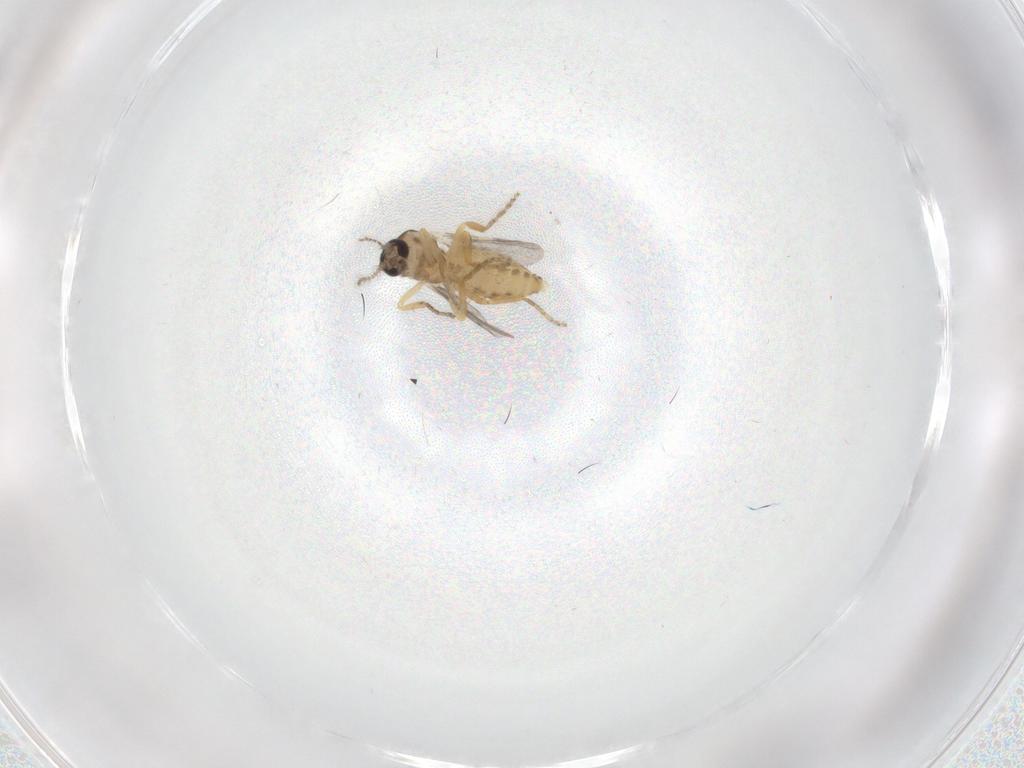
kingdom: Animalia
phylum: Arthropoda
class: Insecta
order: Diptera
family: Ceratopogonidae
